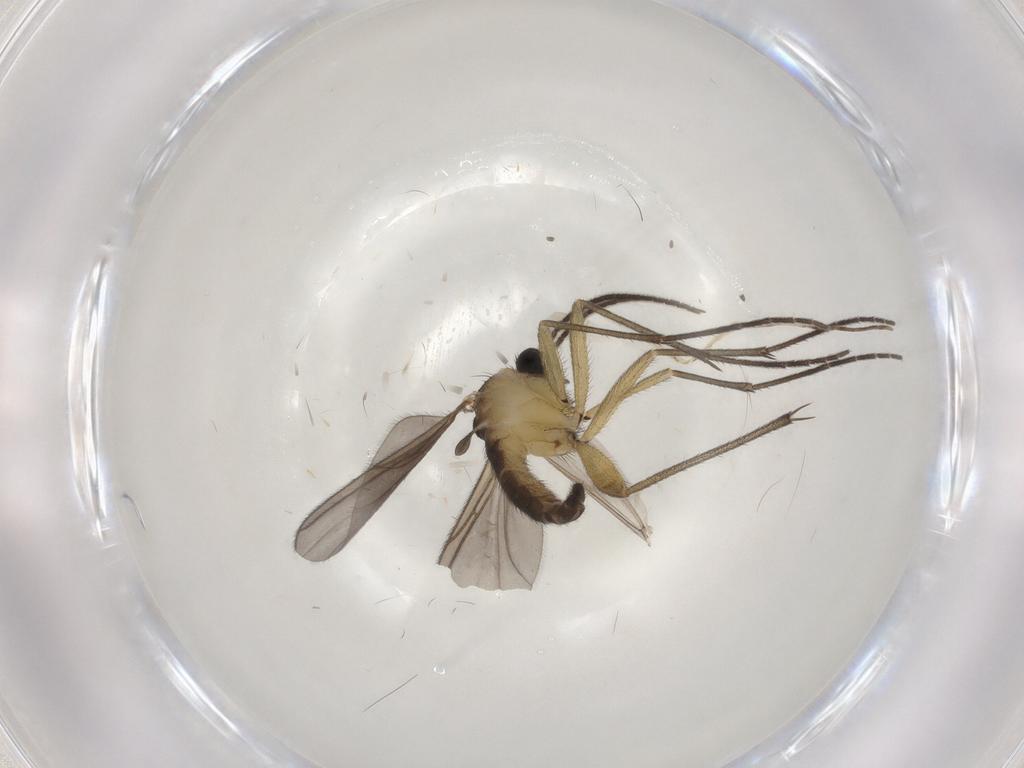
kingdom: Animalia
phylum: Arthropoda
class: Insecta
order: Diptera
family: Sciaridae
